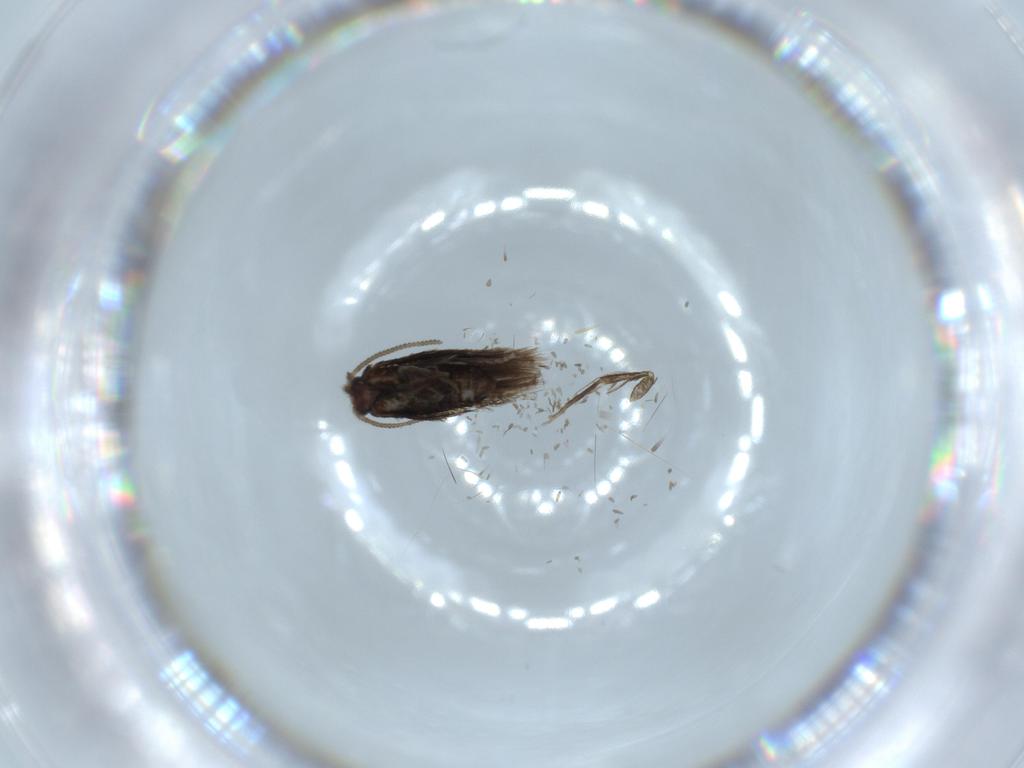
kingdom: Animalia
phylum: Arthropoda
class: Insecta
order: Lepidoptera
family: Nepticulidae
